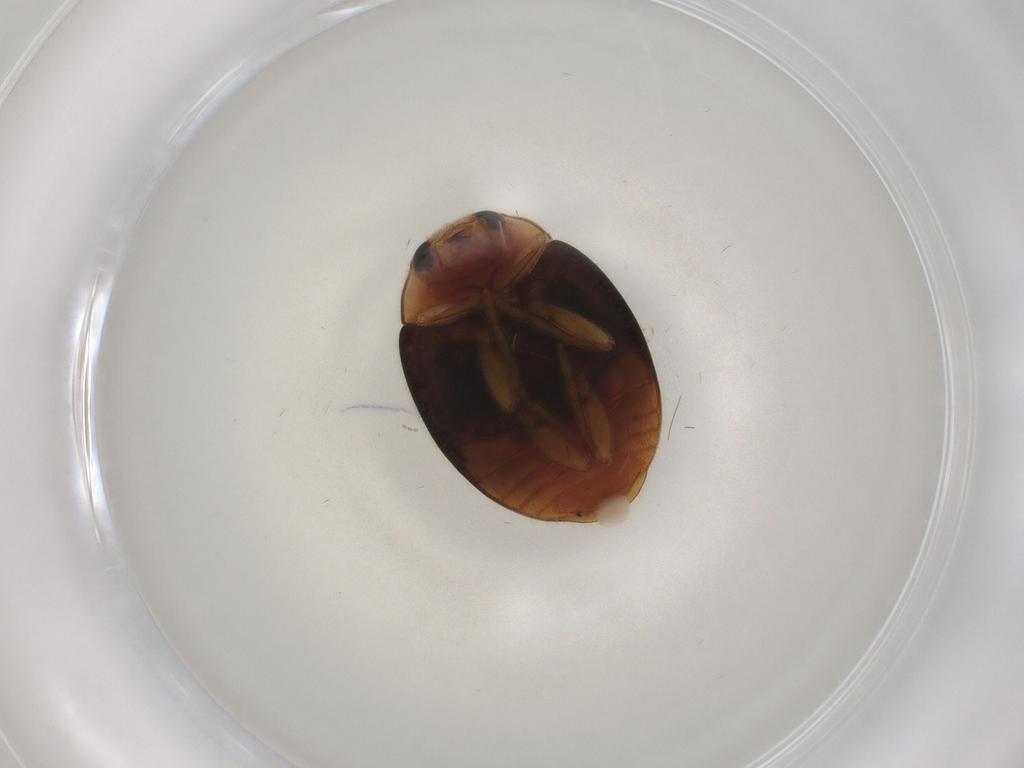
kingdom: Animalia
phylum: Arthropoda
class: Insecta
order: Coleoptera
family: Coccinellidae
